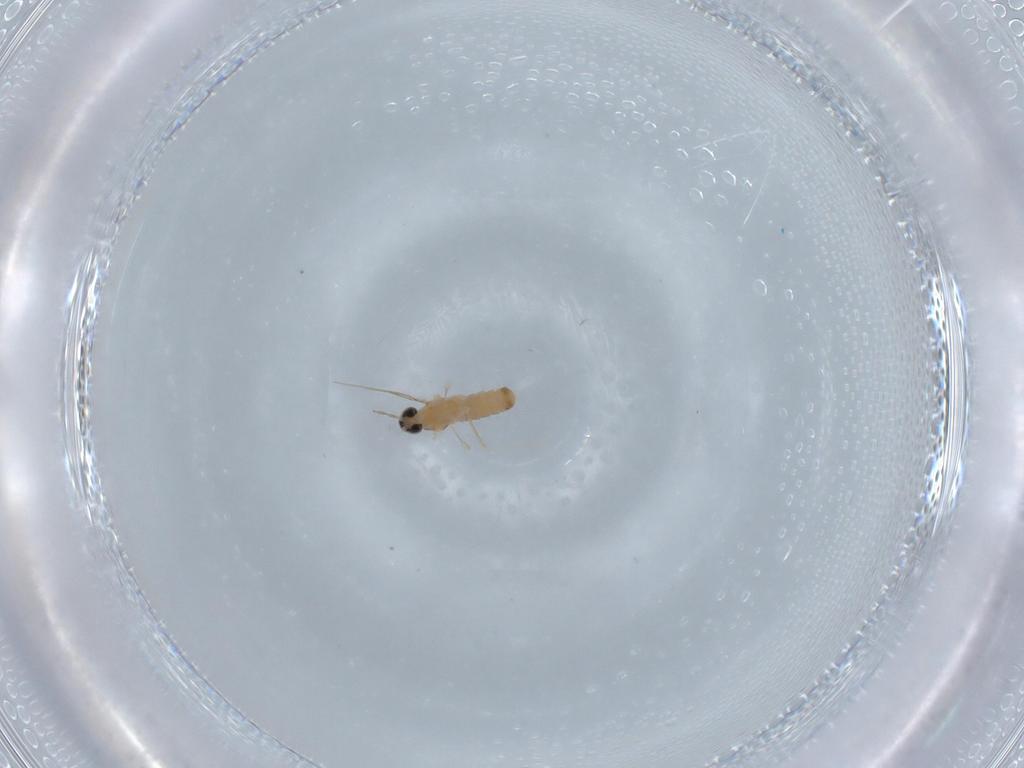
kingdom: Animalia
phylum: Arthropoda
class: Insecta
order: Diptera
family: Cecidomyiidae
